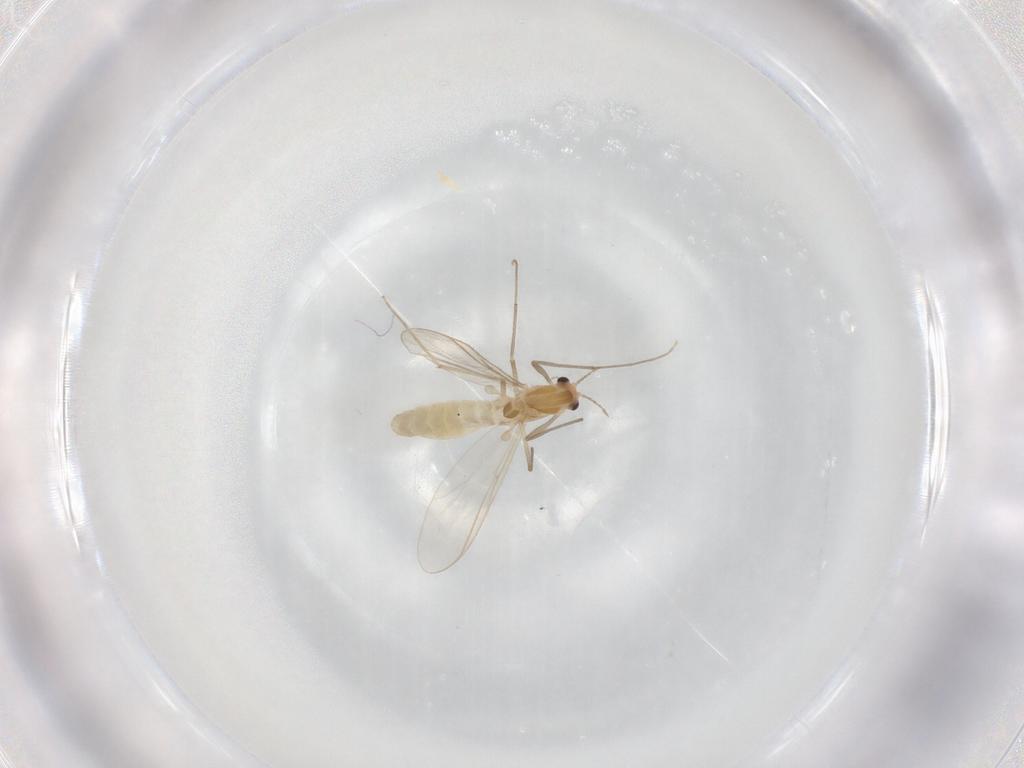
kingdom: Animalia
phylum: Arthropoda
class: Insecta
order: Diptera
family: Chironomidae
